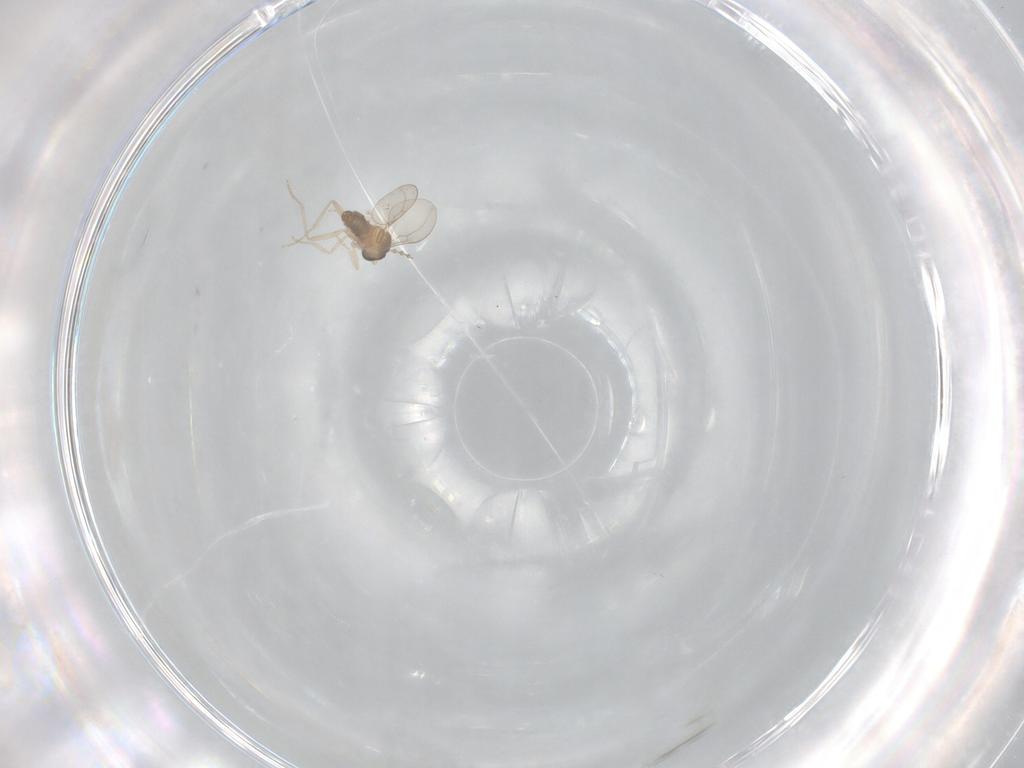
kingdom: Animalia
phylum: Arthropoda
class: Insecta
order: Diptera
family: Cecidomyiidae
